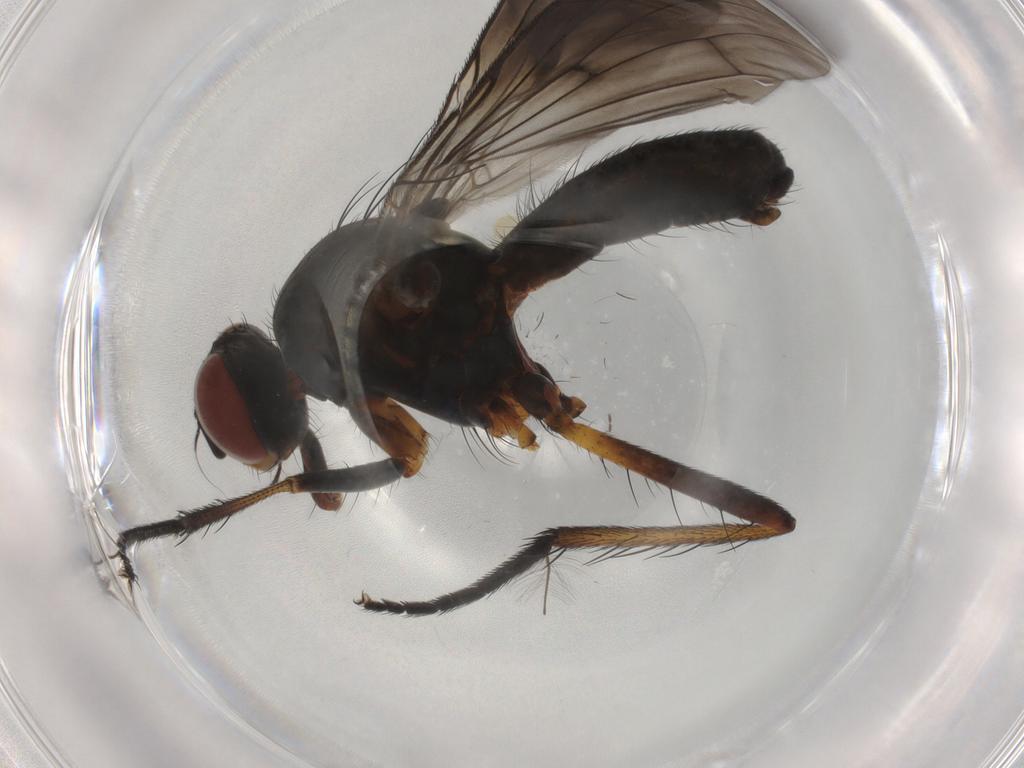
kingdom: Animalia
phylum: Arthropoda
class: Insecta
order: Diptera
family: Anthomyiidae
